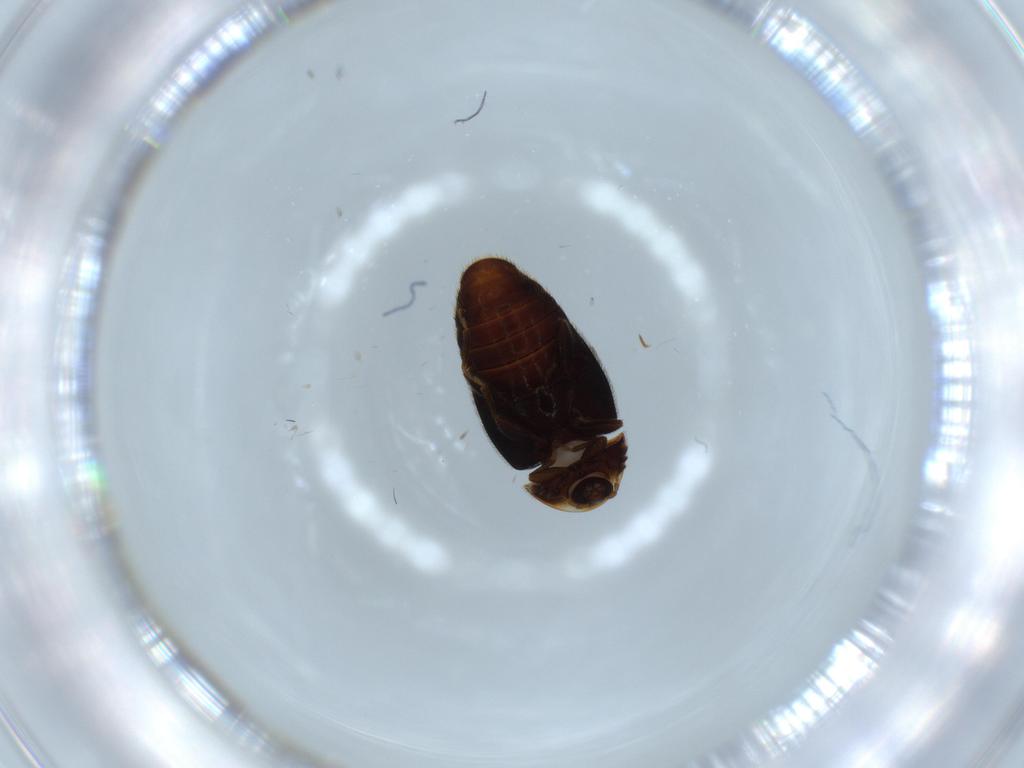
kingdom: Animalia
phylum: Arthropoda
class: Insecta
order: Coleoptera
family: Corylophidae
